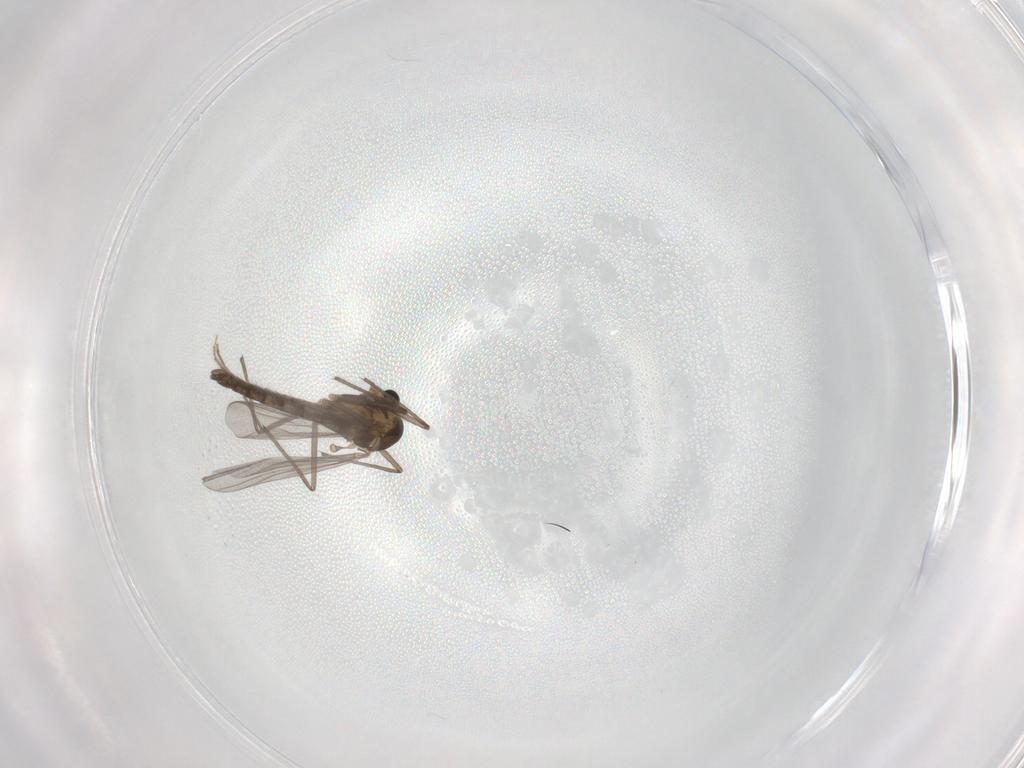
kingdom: Animalia
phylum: Arthropoda
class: Insecta
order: Diptera
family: Chironomidae
